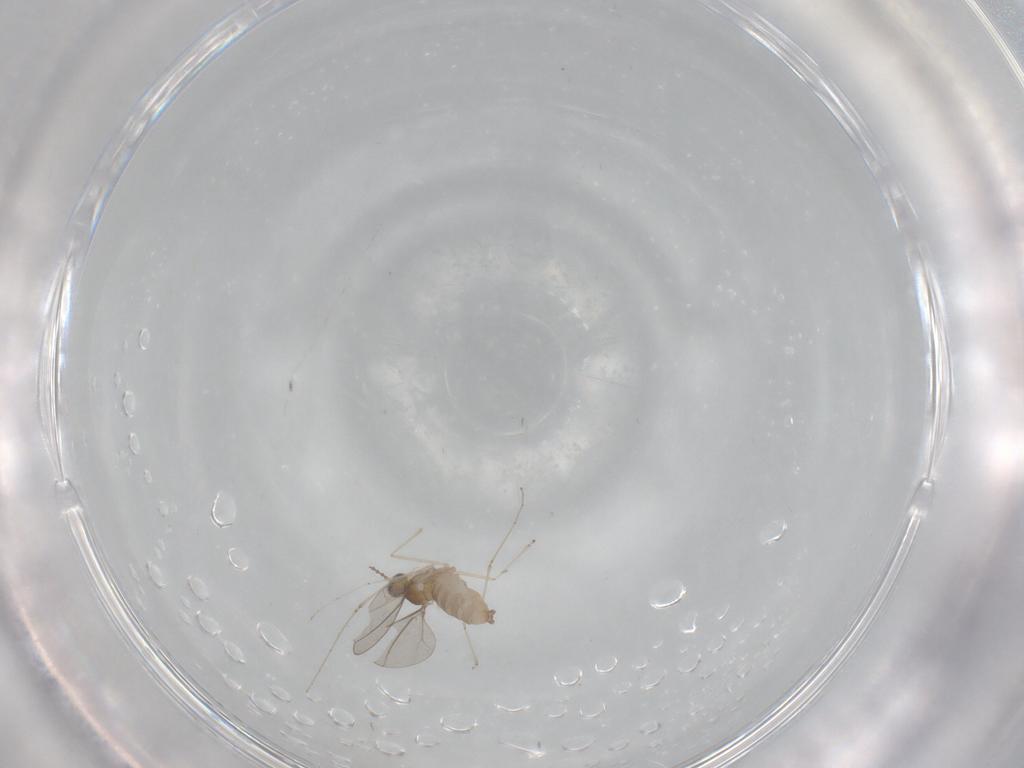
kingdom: Animalia
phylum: Arthropoda
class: Insecta
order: Diptera
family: Cecidomyiidae
